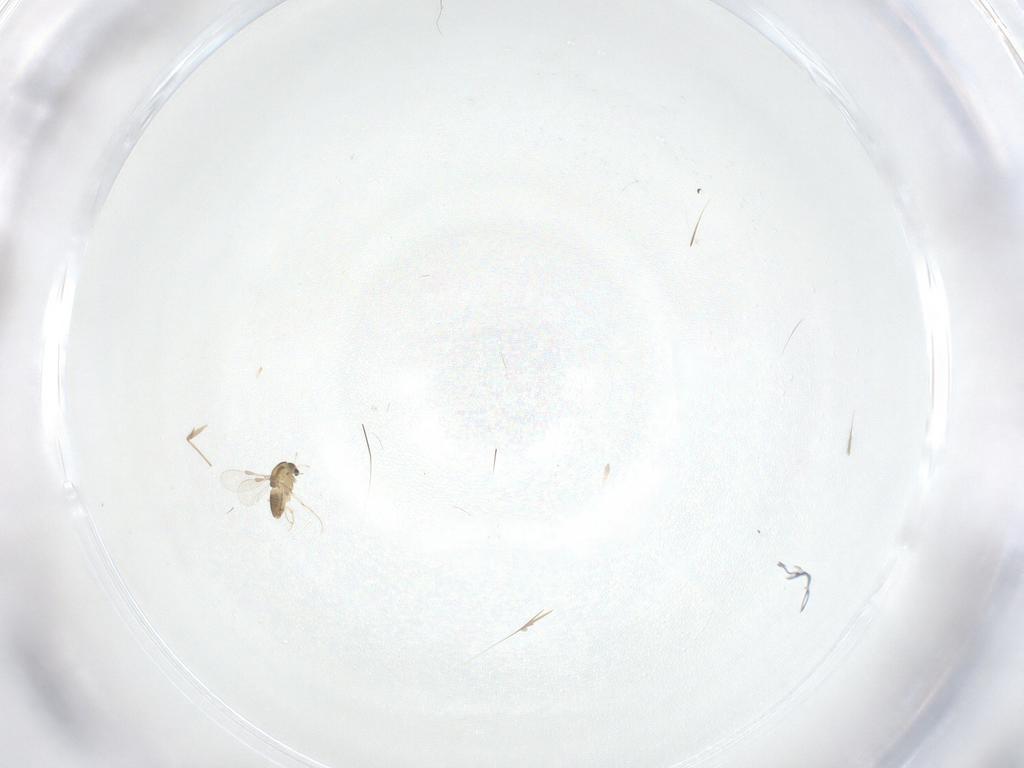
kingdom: Animalia
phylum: Arthropoda
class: Insecta
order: Diptera
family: Chironomidae
